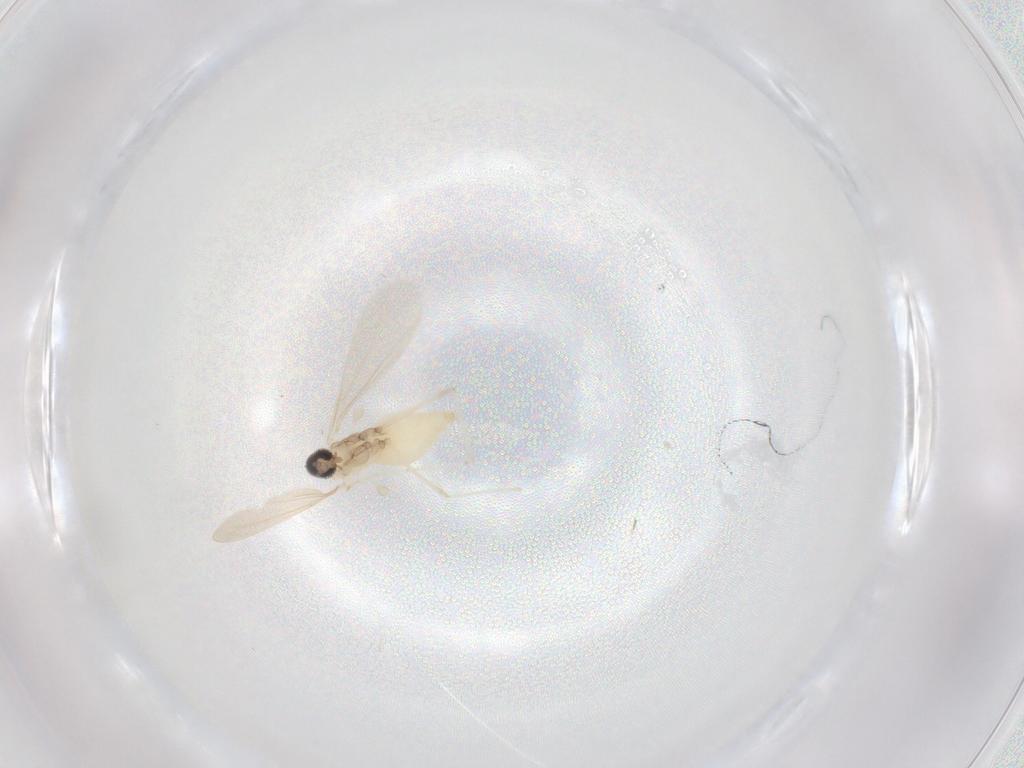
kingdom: Animalia
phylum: Arthropoda
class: Insecta
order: Diptera
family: Cecidomyiidae
